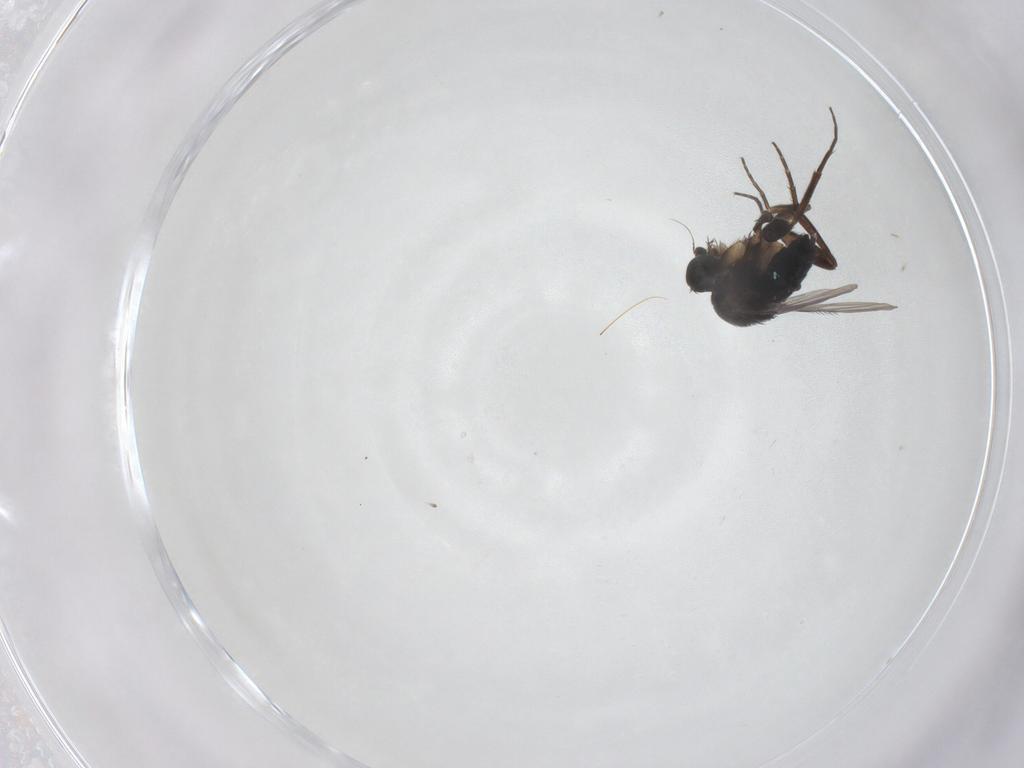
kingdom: Animalia
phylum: Arthropoda
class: Insecta
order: Diptera
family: Phoridae
